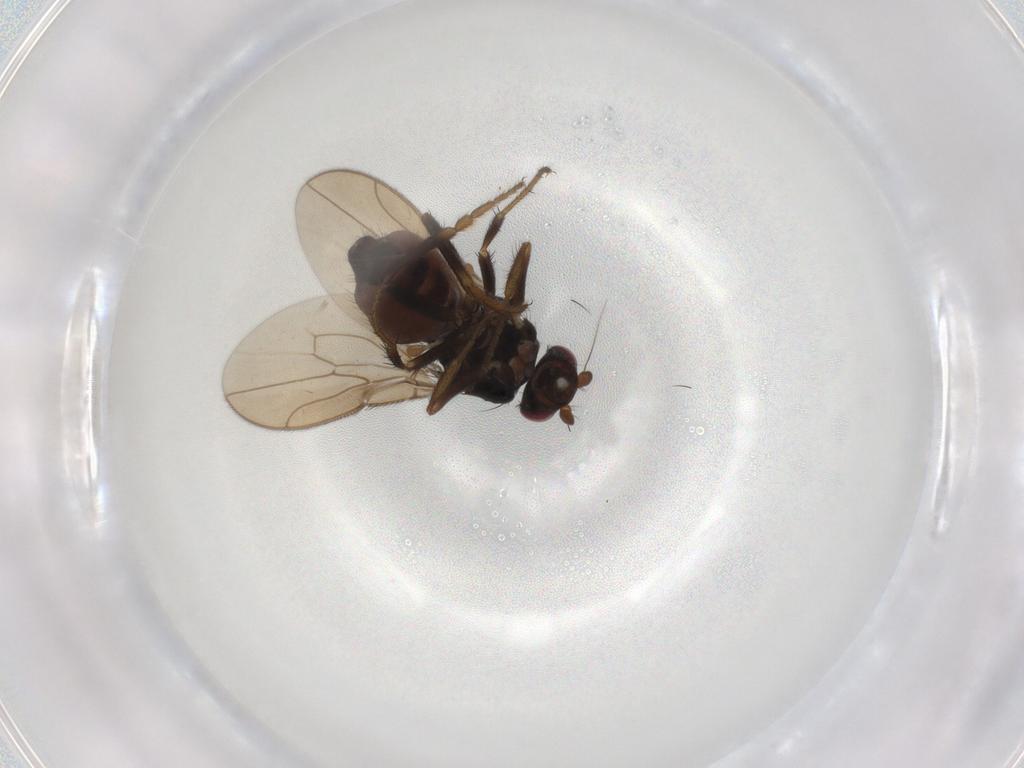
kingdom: Animalia
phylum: Arthropoda
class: Insecta
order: Diptera
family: Sphaeroceridae
